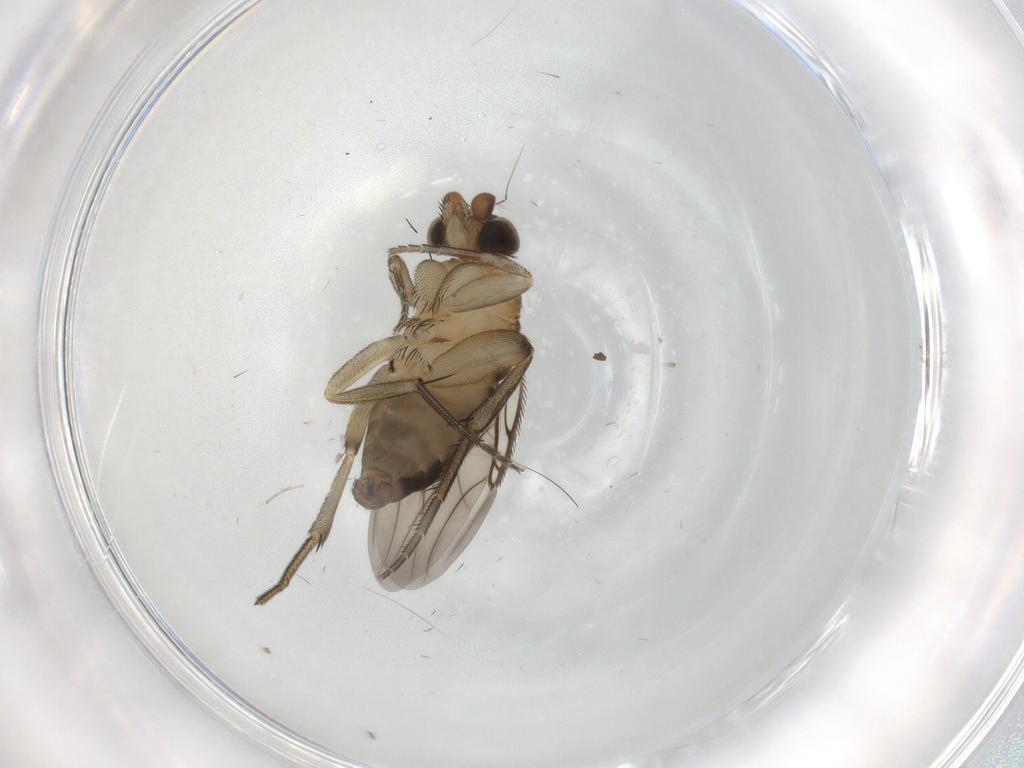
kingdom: Animalia
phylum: Arthropoda
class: Insecta
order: Diptera
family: Phoridae
